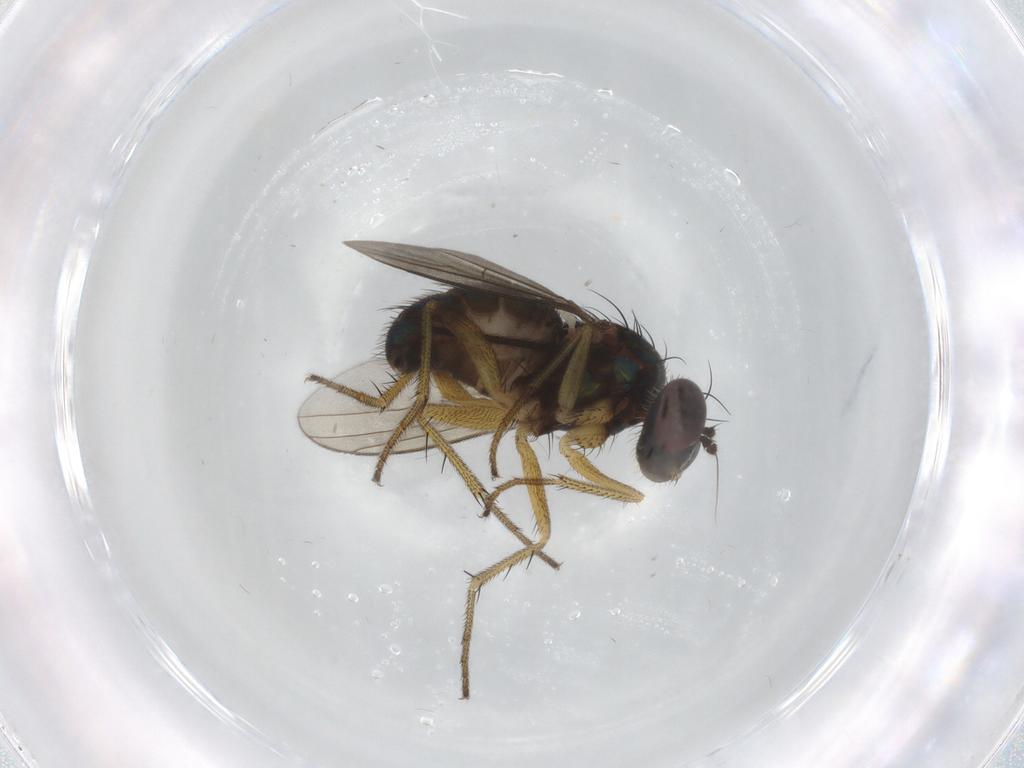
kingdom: Animalia
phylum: Arthropoda
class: Insecta
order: Diptera
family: Dolichopodidae
